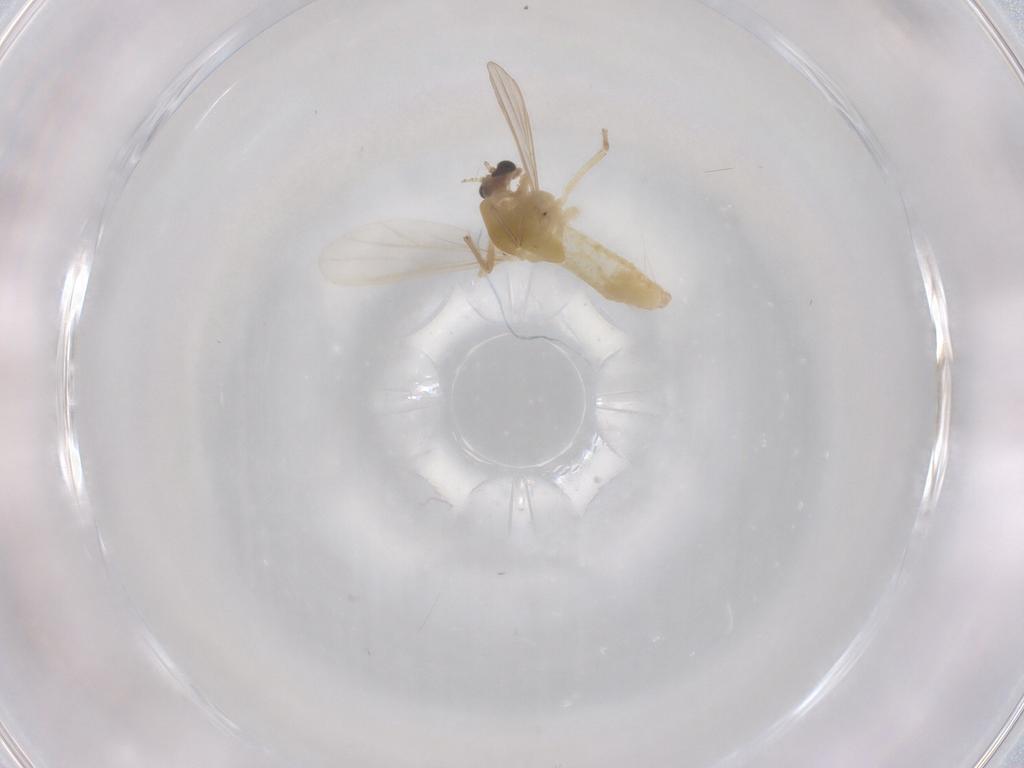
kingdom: Animalia
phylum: Arthropoda
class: Insecta
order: Diptera
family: Chironomidae
